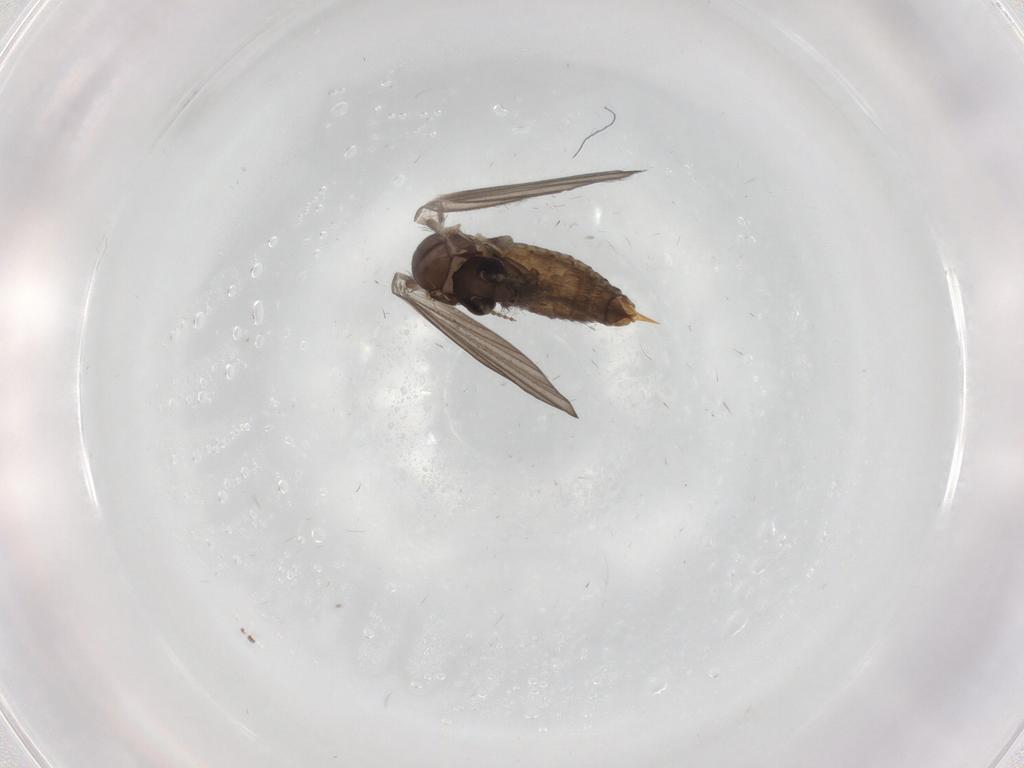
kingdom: Animalia
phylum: Arthropoda
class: Insecta
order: Diptera
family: Psychodidae
